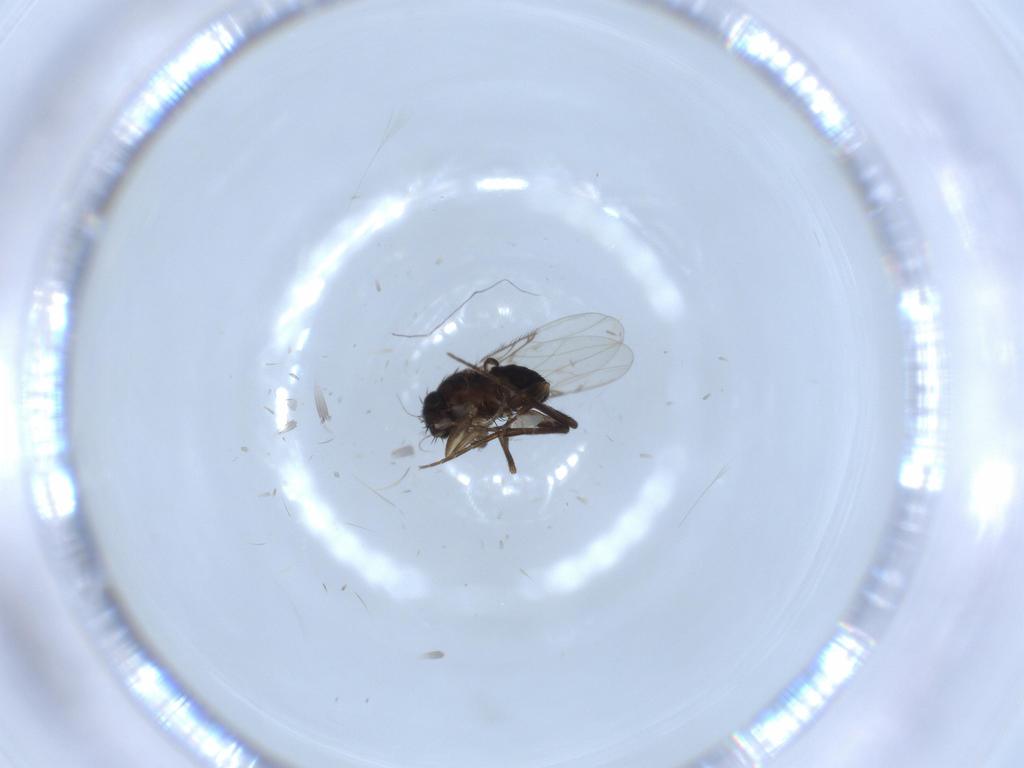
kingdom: Animalia
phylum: Arthropoda
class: Insecta
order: Diptera
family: Phoridae
